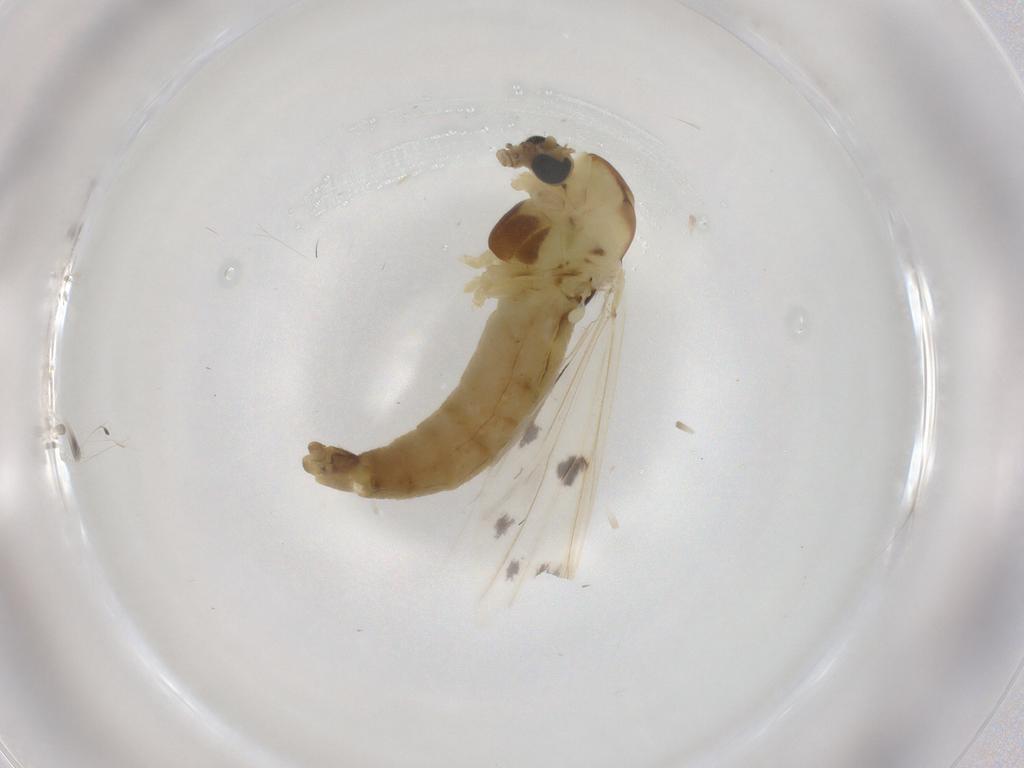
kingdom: Animalia
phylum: Arthropoda
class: Insecta
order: Diptera
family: Chironomidae
